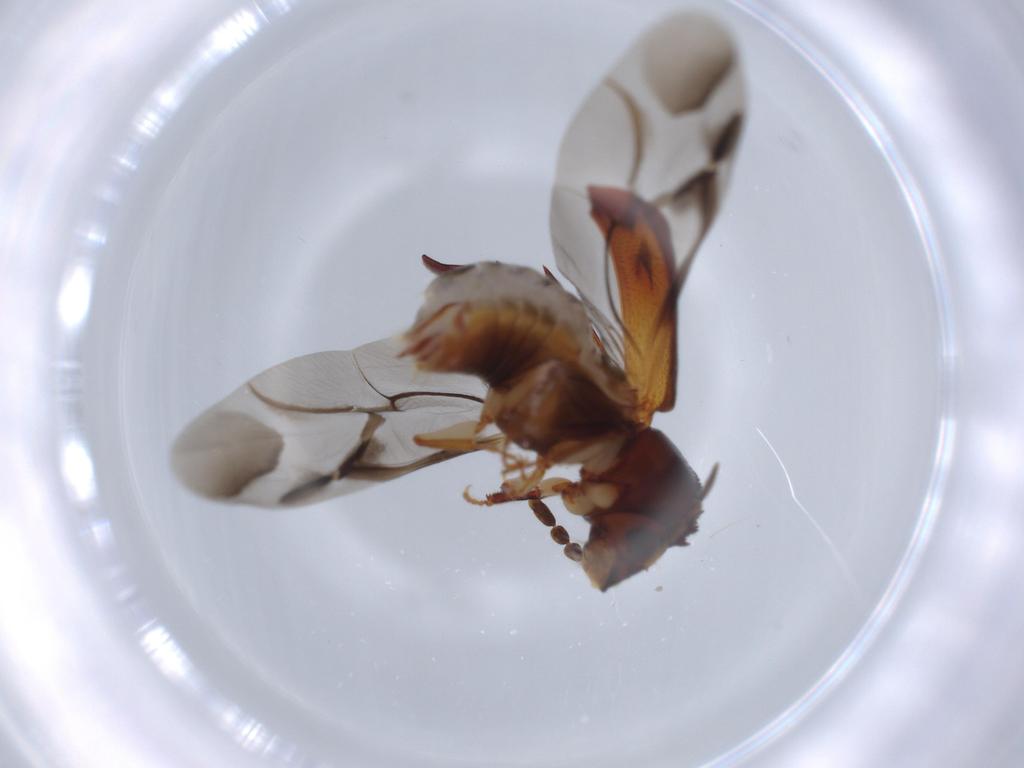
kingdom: Animalia
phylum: Arthropoda
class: Insecta
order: Coleoptera
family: Bostrichidae
